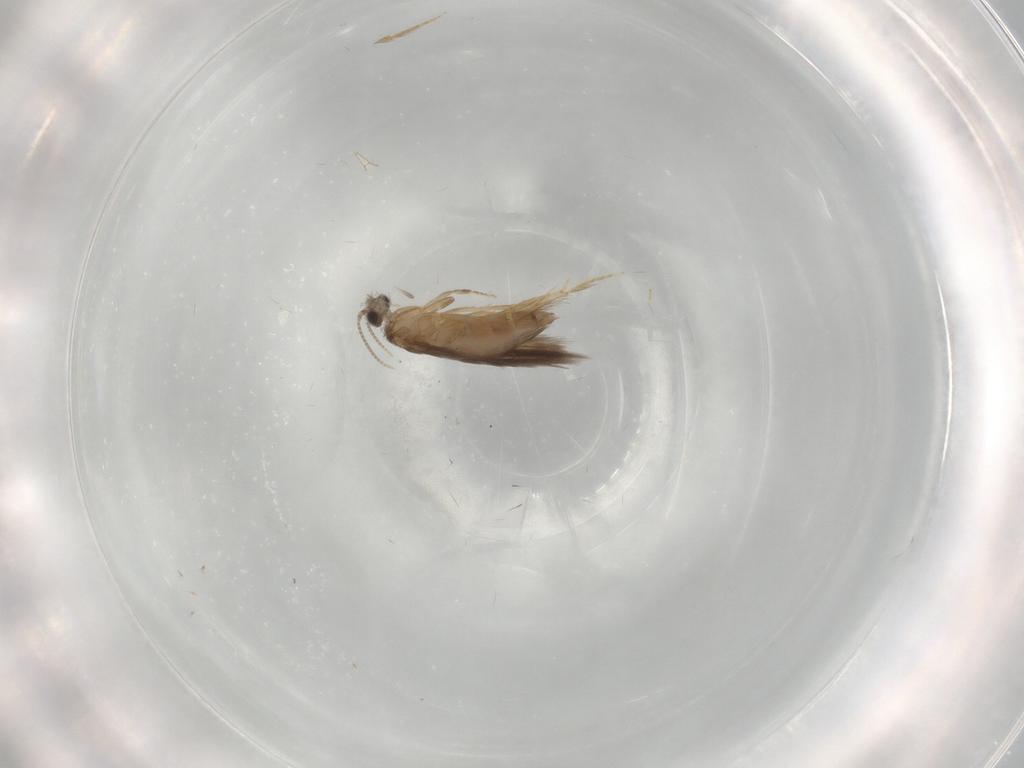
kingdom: Animalia
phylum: Arthropoda
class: Insecta
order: Trichoptera
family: Hydroptilidae
